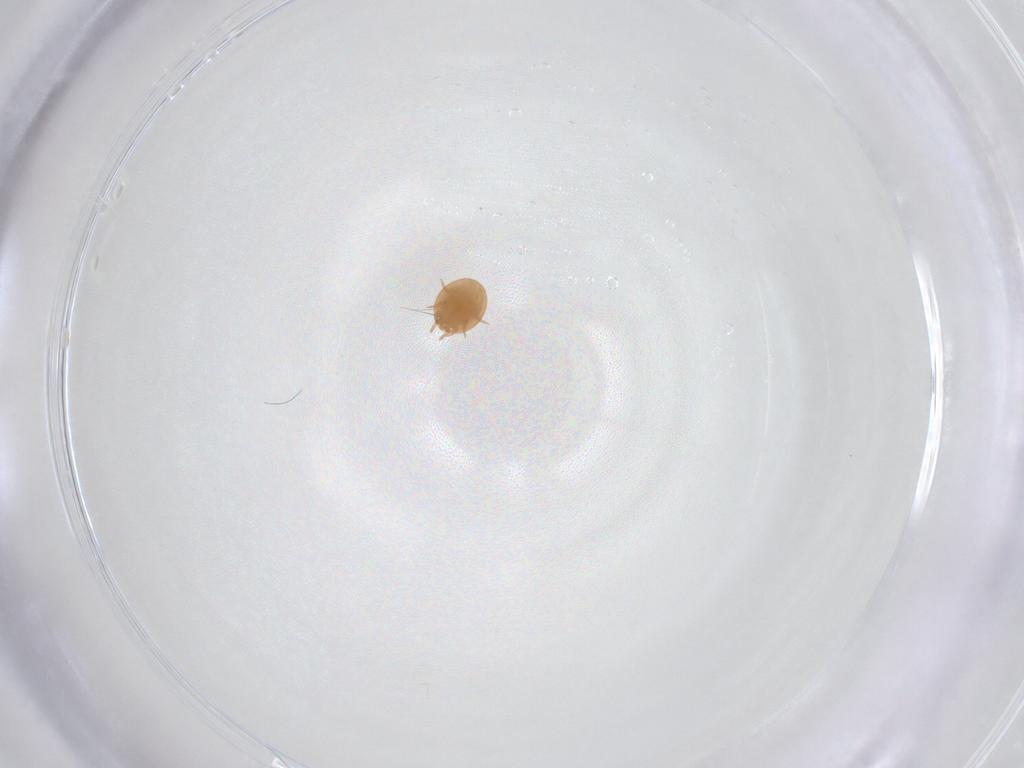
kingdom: Animalia
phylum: Arthropoda
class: Arachnida
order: Mesostigmata
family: Trematuridae
